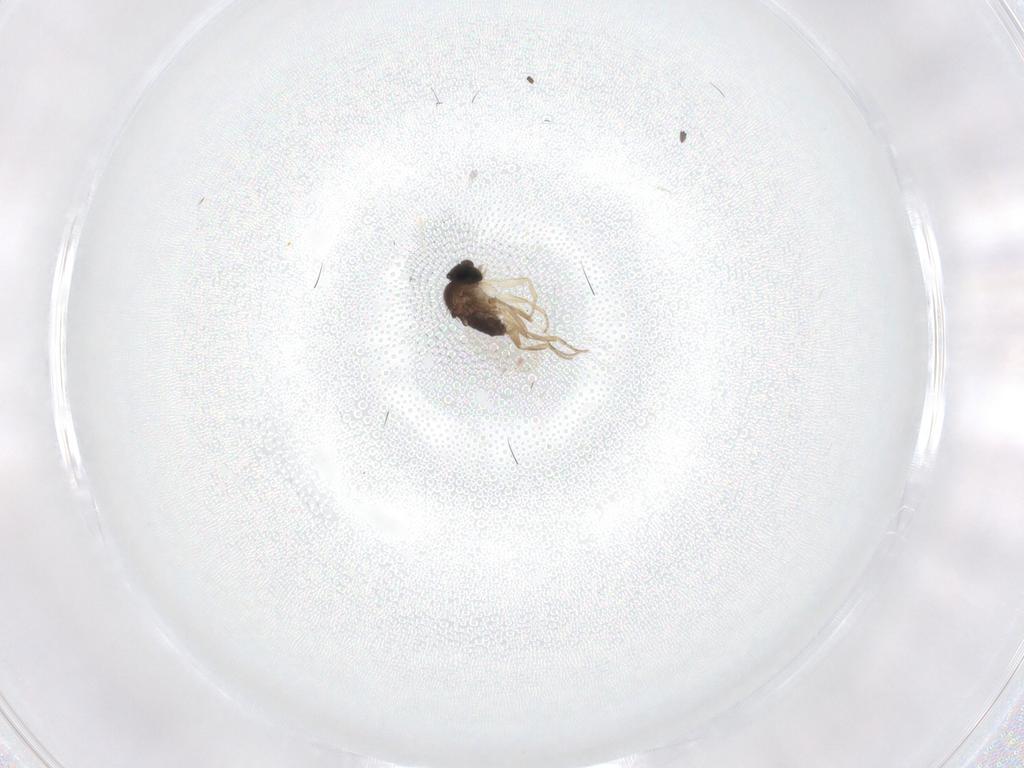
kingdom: Animalia
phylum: Arthropoda
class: Insecta
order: Diptera
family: Phoridae
